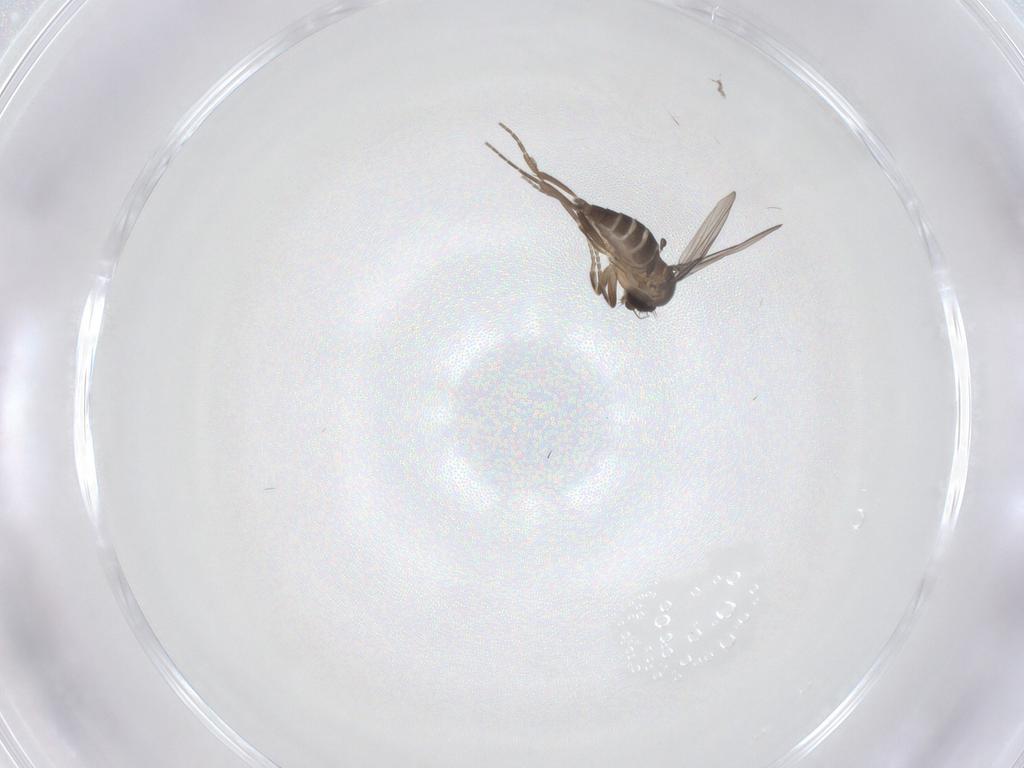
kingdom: Animalia
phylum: Arthropoda
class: Insecta
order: Diptera
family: Phoridae
